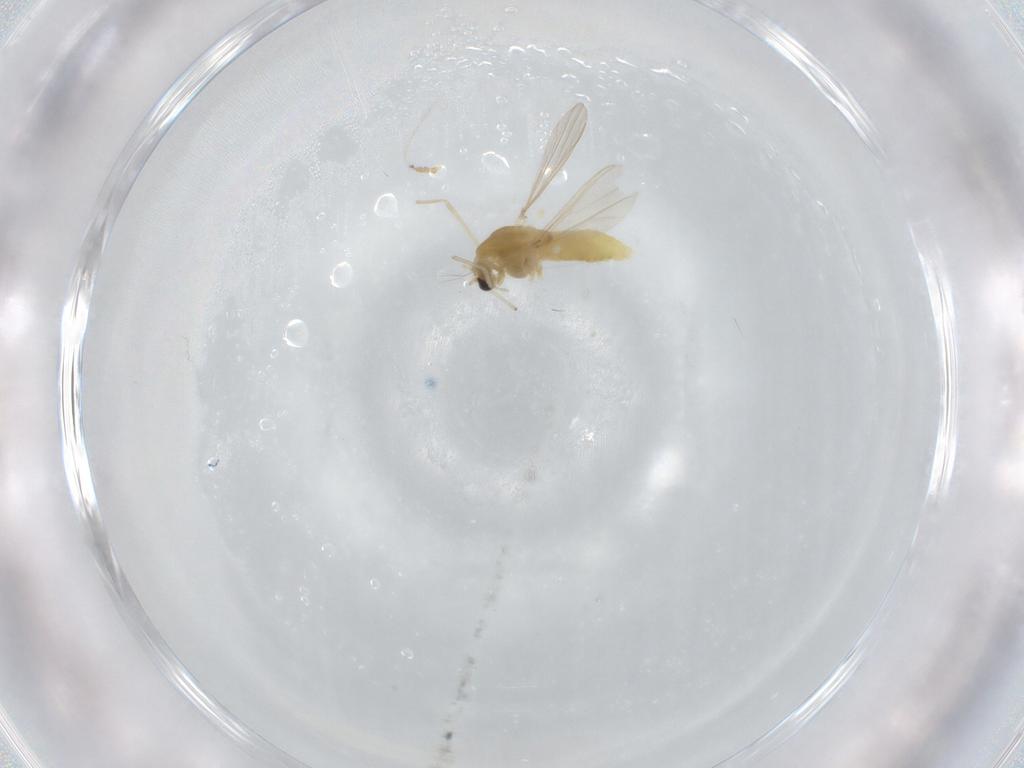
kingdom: Animalia
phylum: Arthropoda
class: Insecta
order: Diptera
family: Chironomidae
